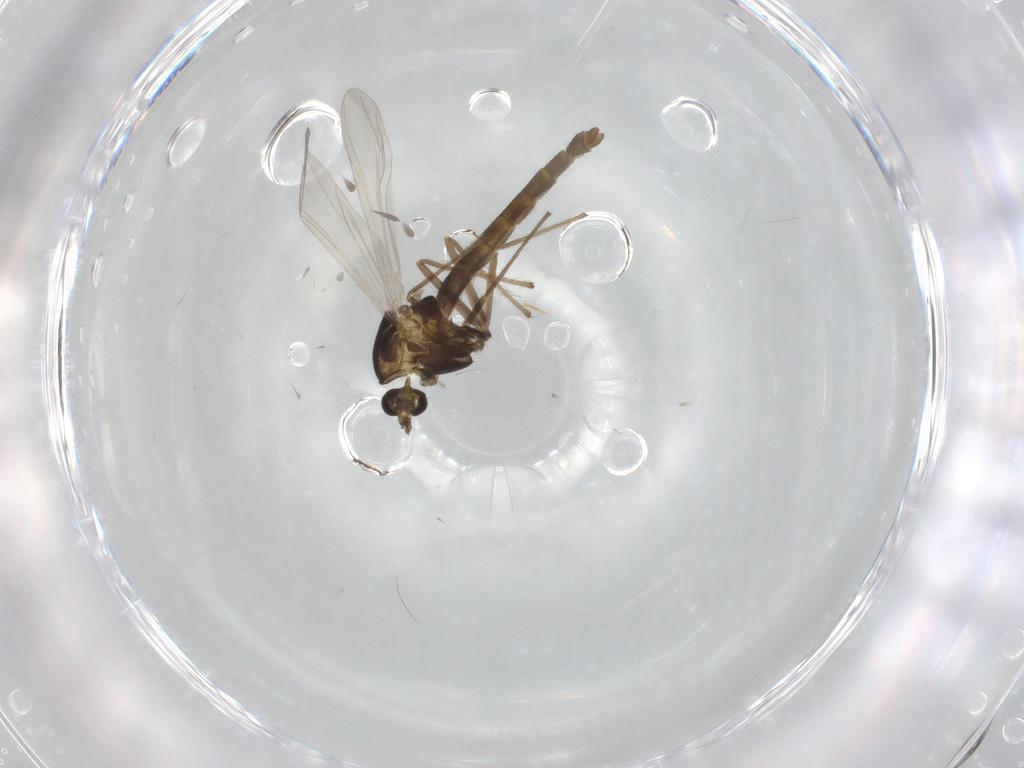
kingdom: Animalia
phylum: Arthropoda
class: Insecta
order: Diptera
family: Chironomidae
